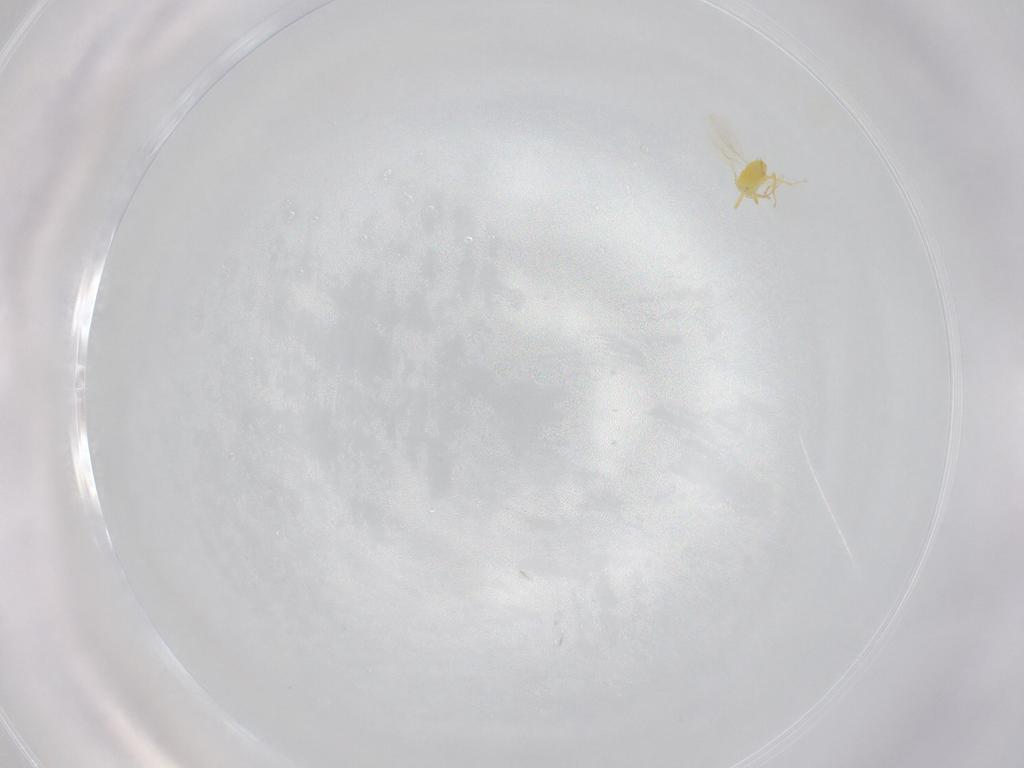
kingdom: Animalia
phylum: Arthropoda
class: Insecta
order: Hymenoptera
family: Aphelinidae
